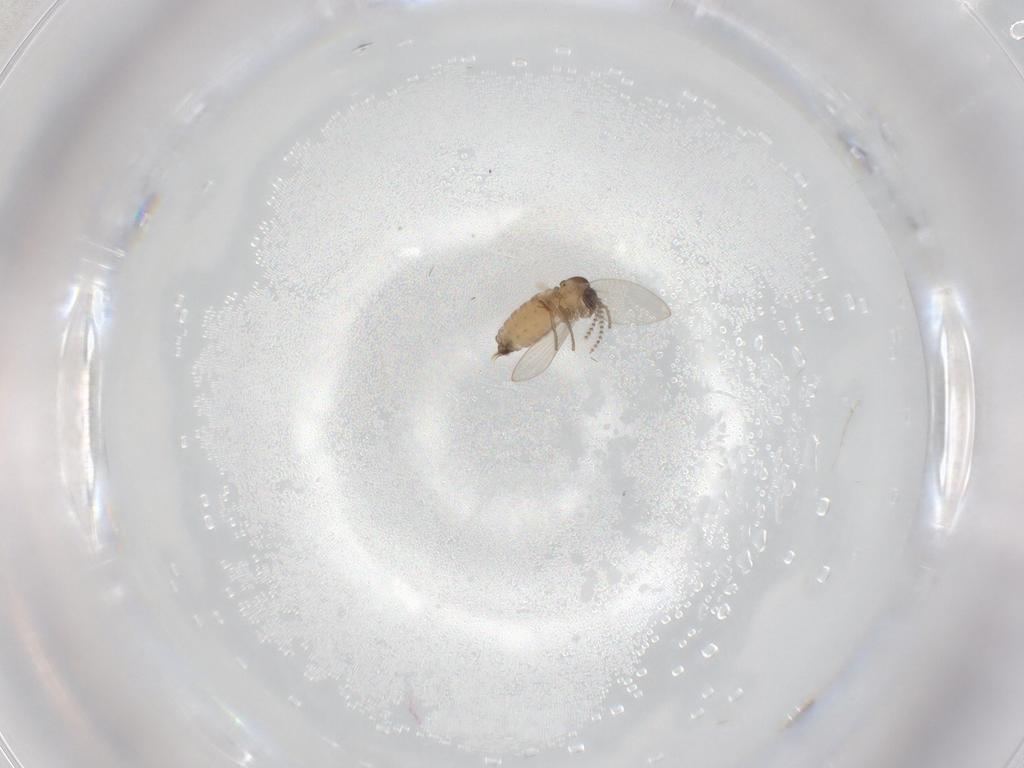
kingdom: Animalia
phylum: Arthropoda
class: Insecta
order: Diptera
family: Psychodidae
